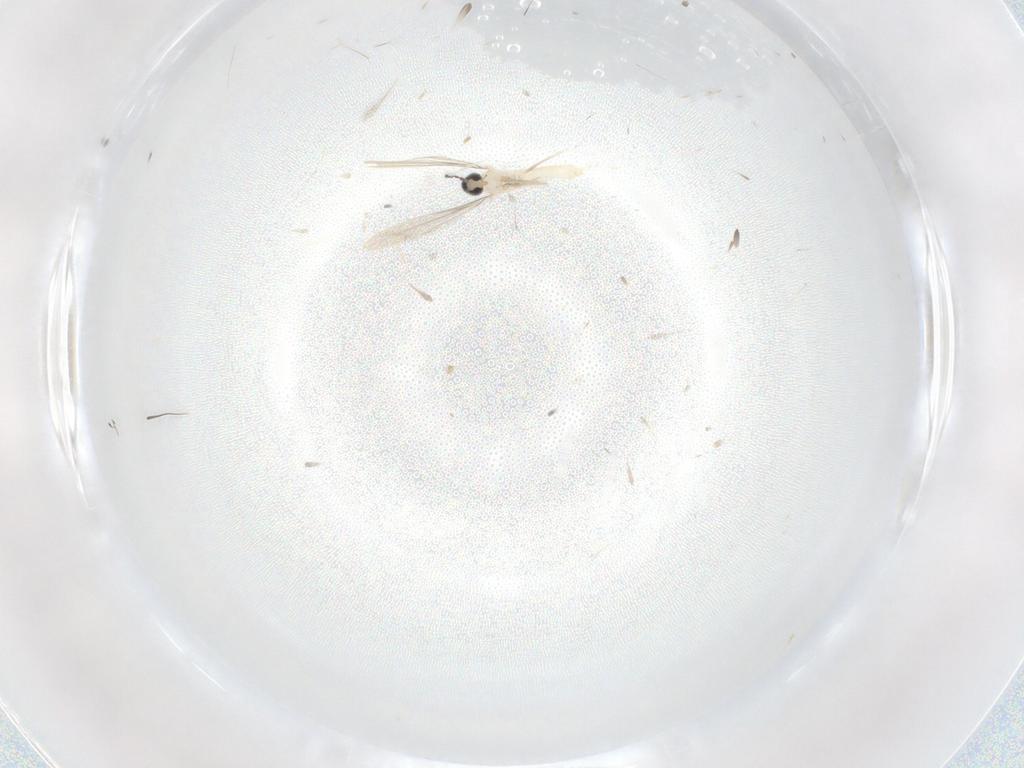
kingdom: Animalia
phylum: Arthropoda
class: Insecta
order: Diptera
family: Cecidomyiidae
